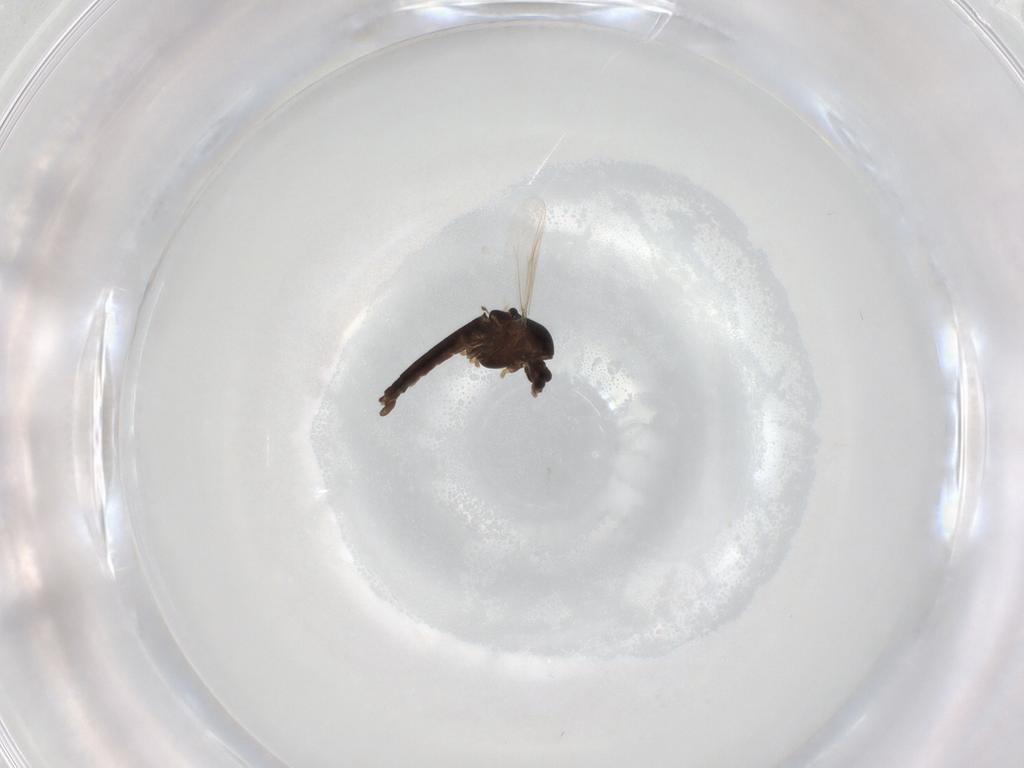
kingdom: Animalia
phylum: Arthropoda
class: Insecta
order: Diptera
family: Chironomidae
